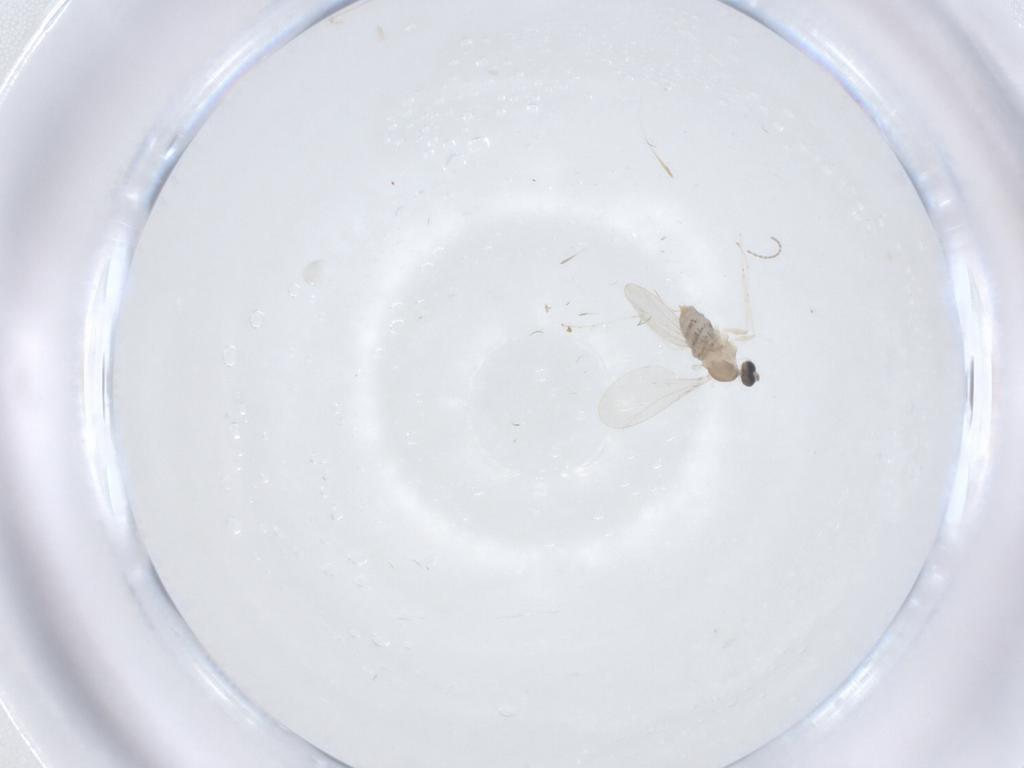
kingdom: Animalia
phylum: Arthropoda
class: Insecta
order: Diptera
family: Cecidomyiidae
